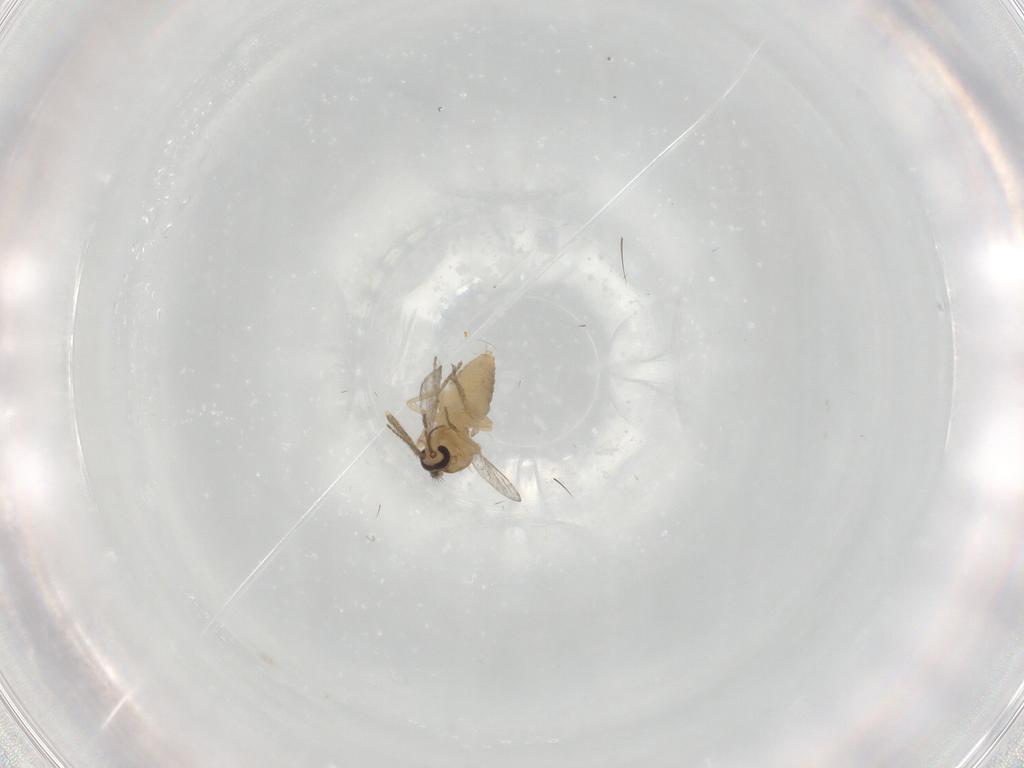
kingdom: Animalia
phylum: Arthropoda
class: Insecta
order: Diptera
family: Ceratopogonidae
